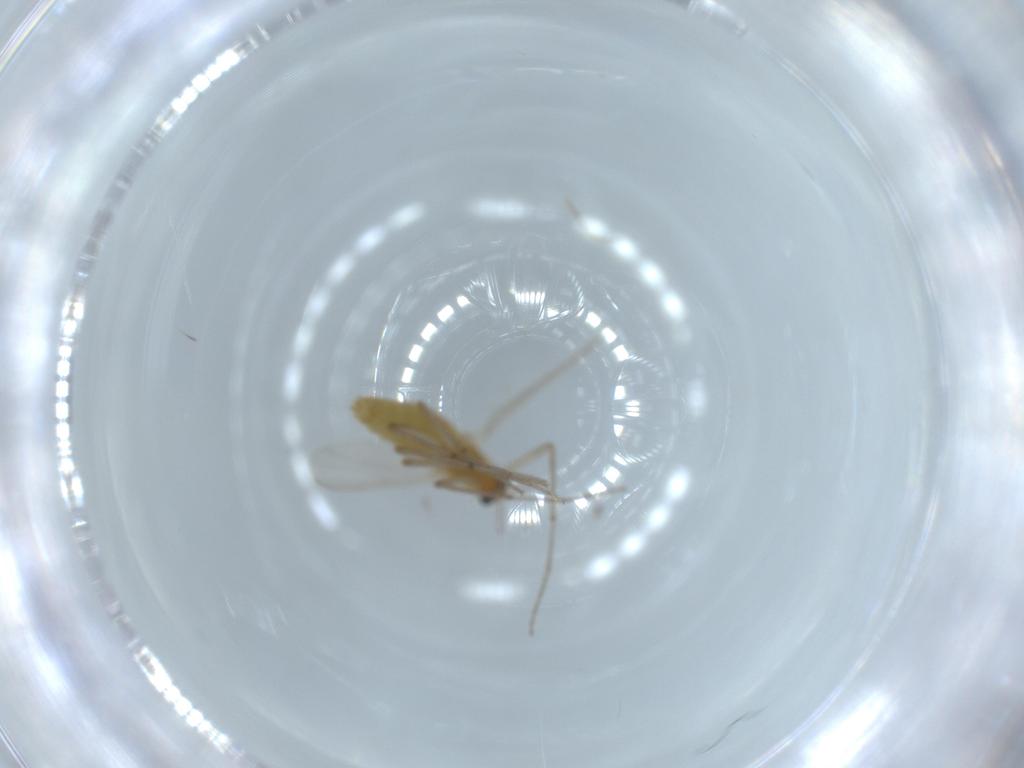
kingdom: Animalia
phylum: Arthropoda
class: Insecta
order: Diptera
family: Chironomidae
